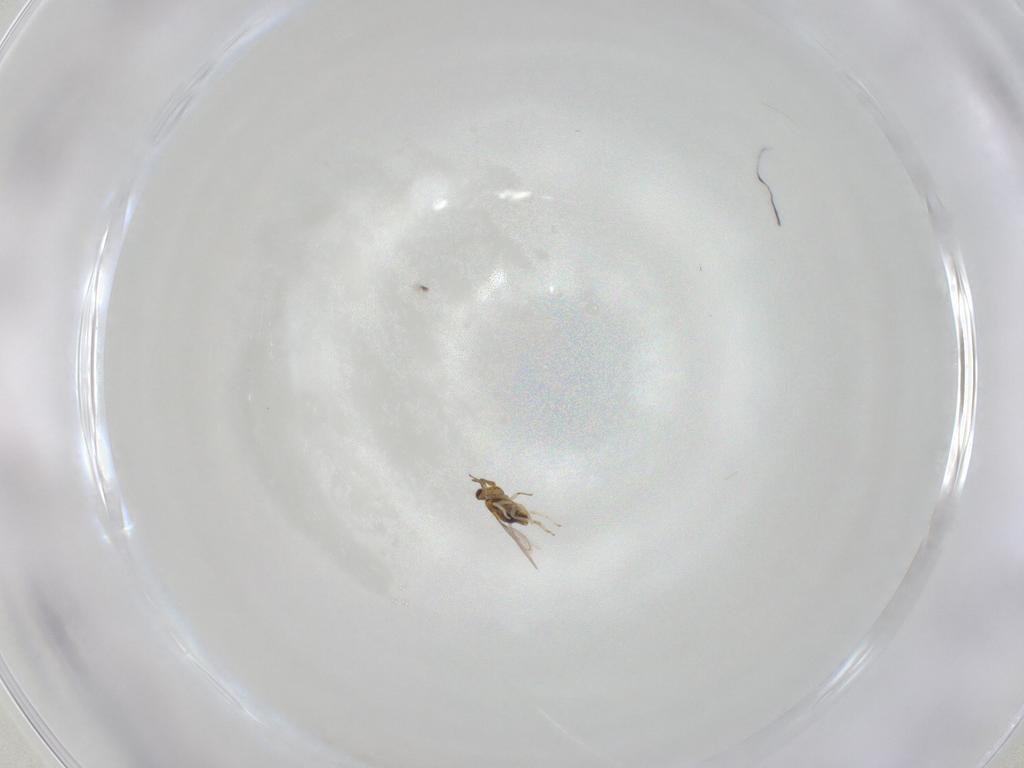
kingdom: Animalia
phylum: Arthropoda
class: Insecta
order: Hymenoptera
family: Aphelinidae
